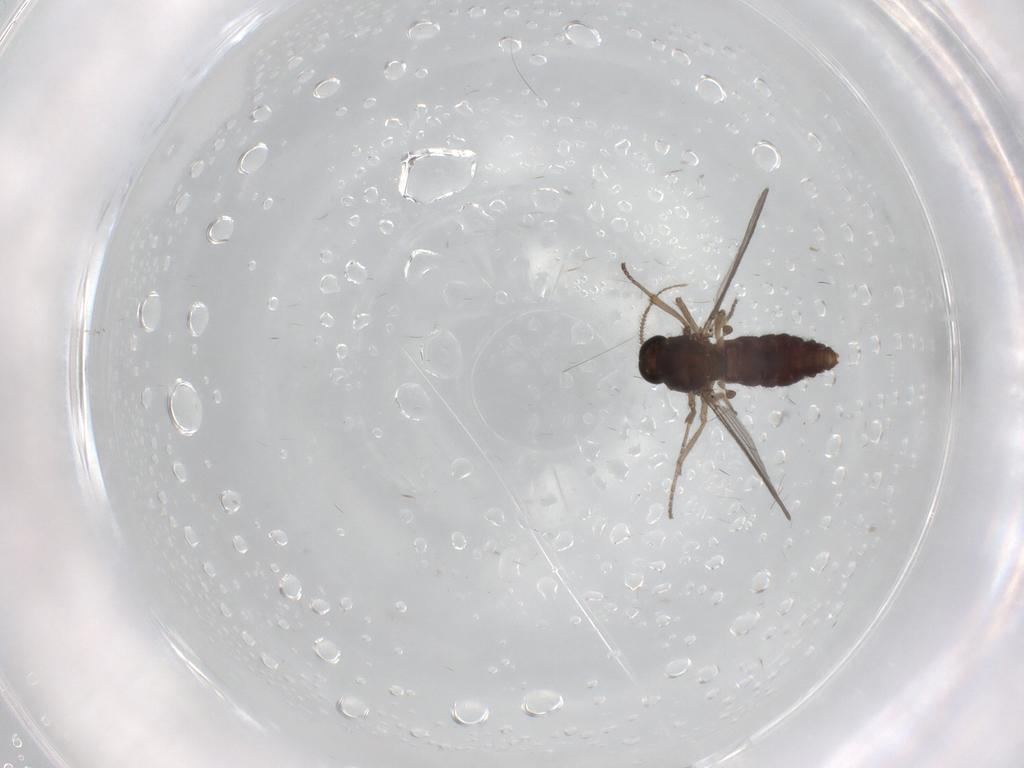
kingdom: Animalia
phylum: Arthropoda
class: Insecta
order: Diptera
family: Ceratopogonidae
